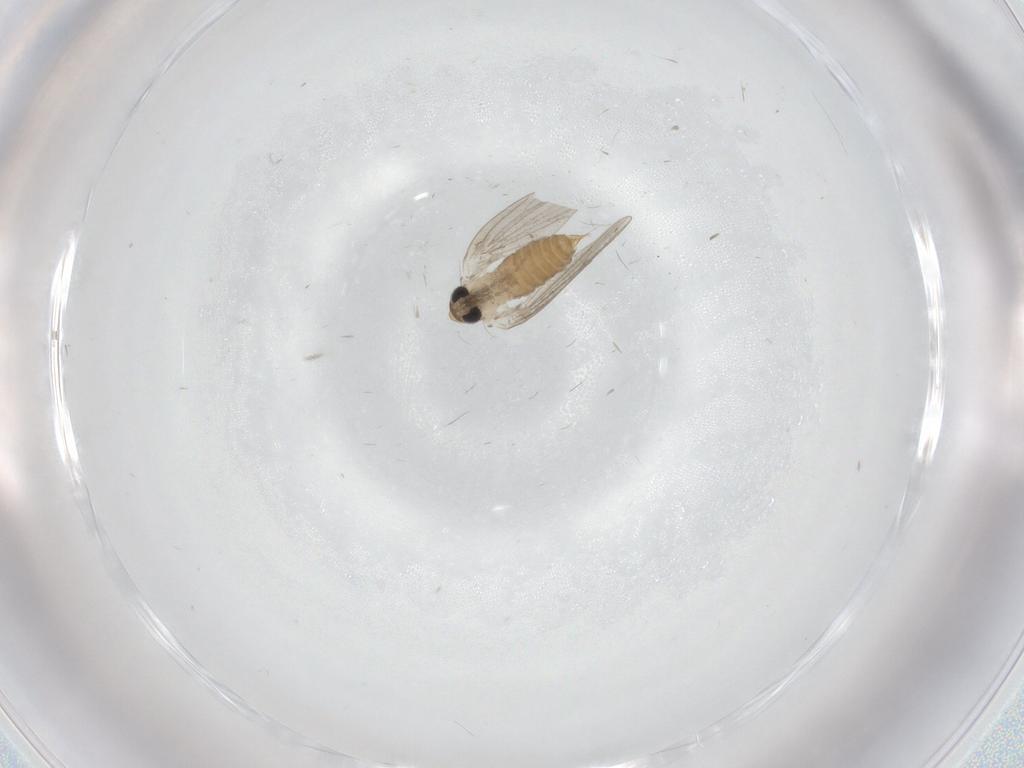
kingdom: Animalia
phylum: Arthropoda
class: Insecta
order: Diptera
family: Psychodidae
